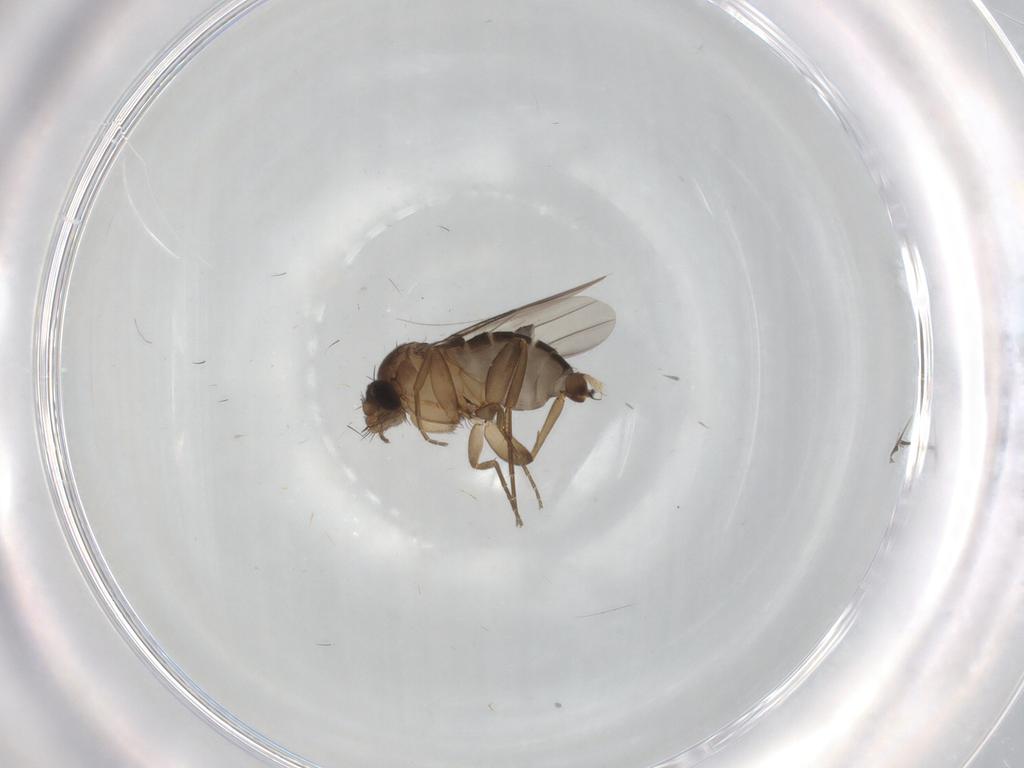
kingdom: Animalia
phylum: Arthropoda
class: Insecta
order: Diptera
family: Phoridae
